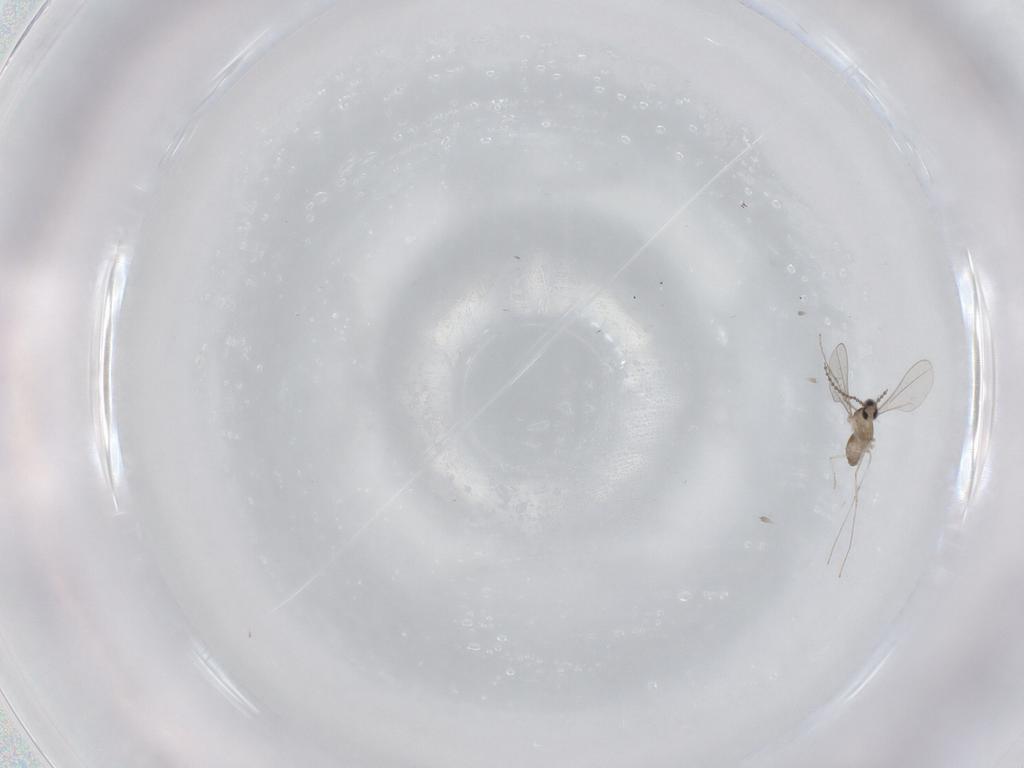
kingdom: Animalia
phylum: Arthropoda
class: Insecta
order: Diptera
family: Cecidomyiidae
